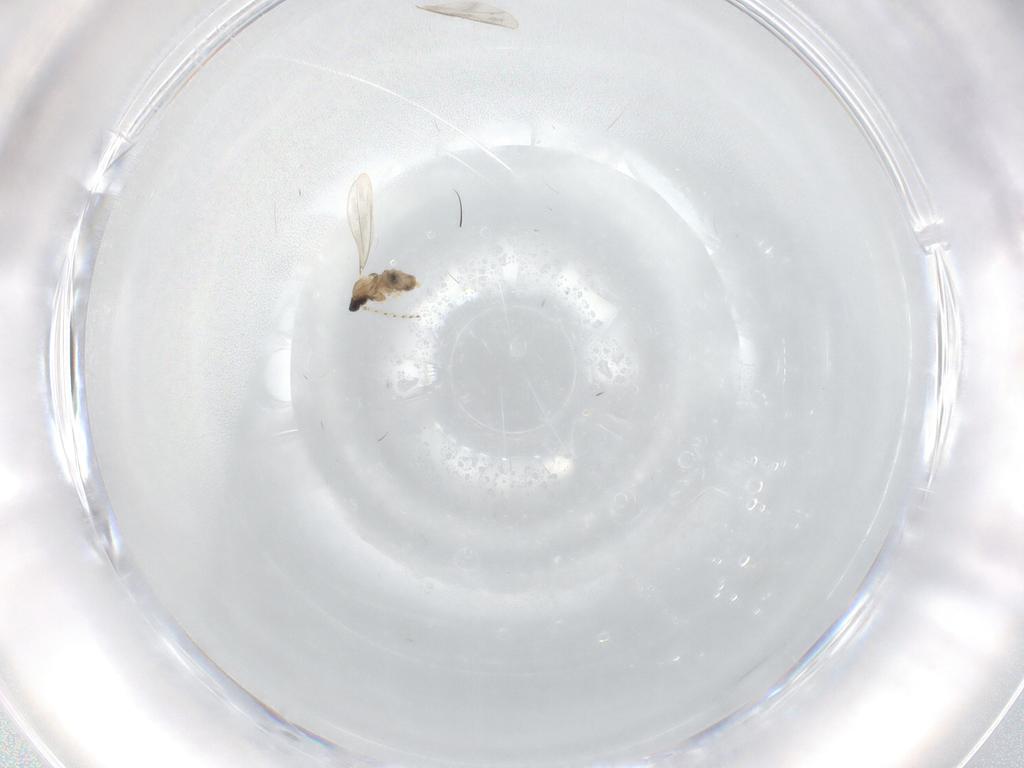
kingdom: Animalia
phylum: Arthropoda
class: Insecta
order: Diptera
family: Cecidomyiidae
